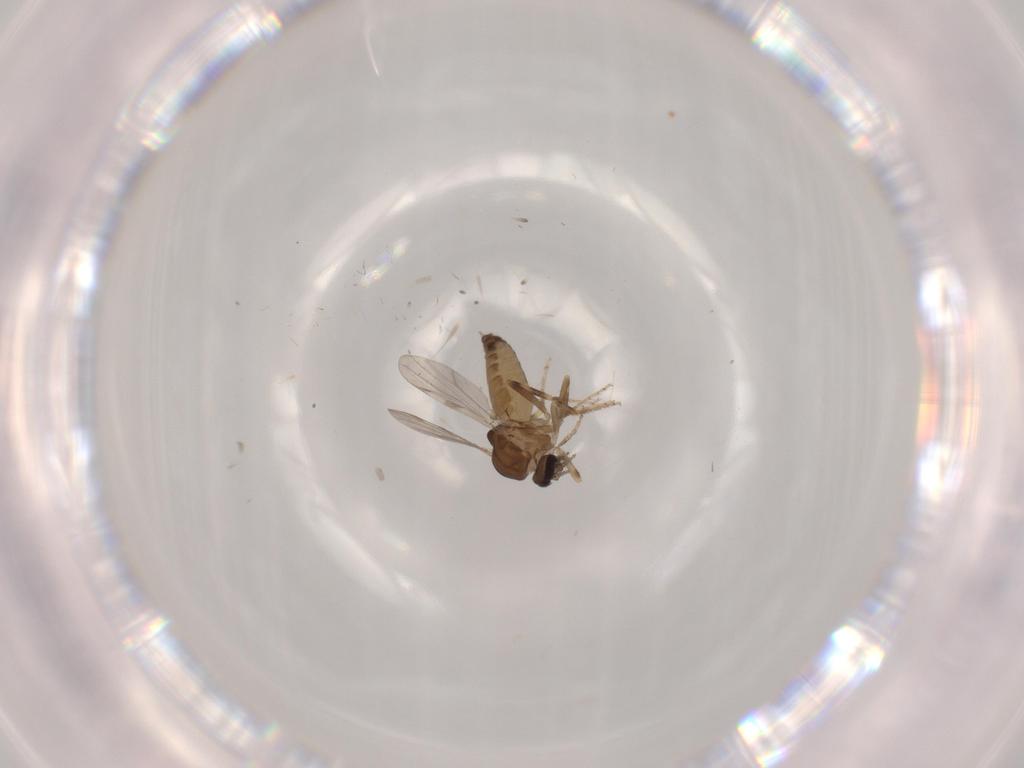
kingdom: Animalia
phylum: Arthropoda
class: Insecta
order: Diptera
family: Ceratopogonidae
